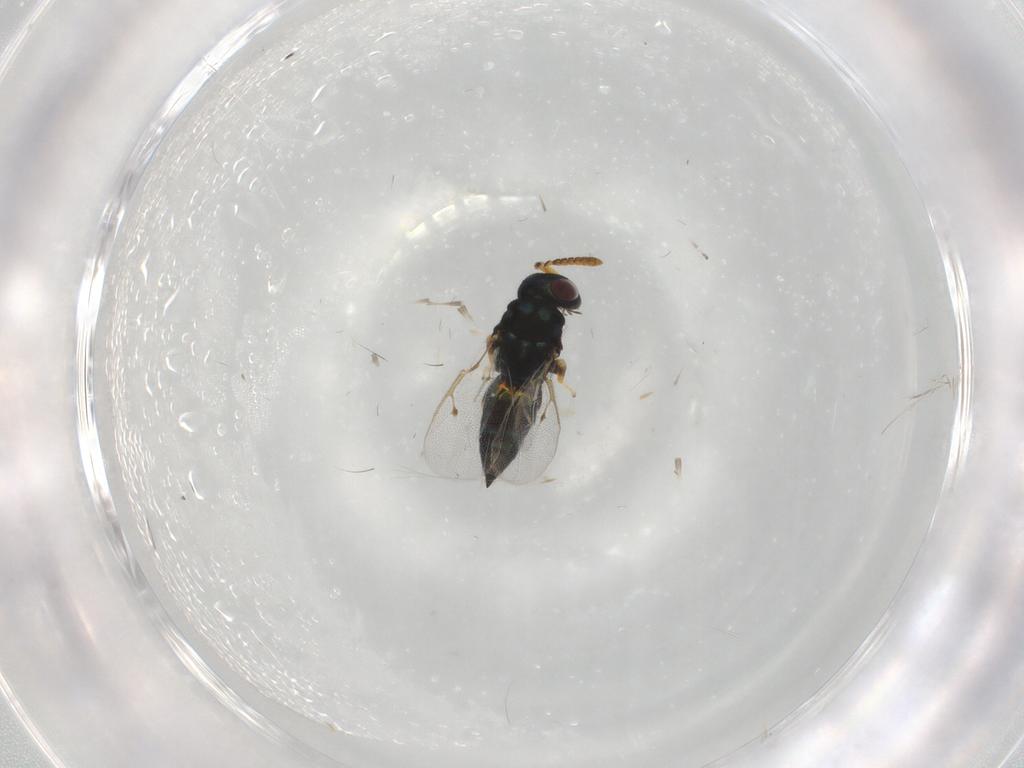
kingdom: Animalia
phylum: Arthropoda
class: Insecta
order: Hymenoptera
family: Pteromalidae
